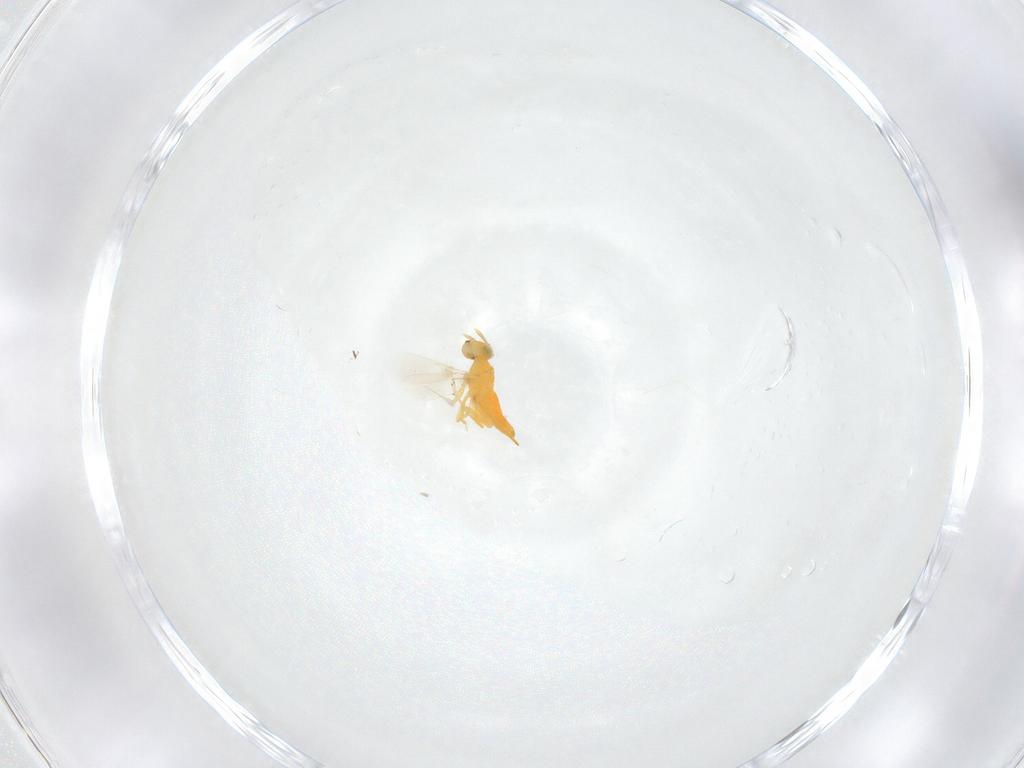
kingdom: Animalia
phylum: Arthropoda
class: Insecta
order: Hymenoptera
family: Aphelinidae
